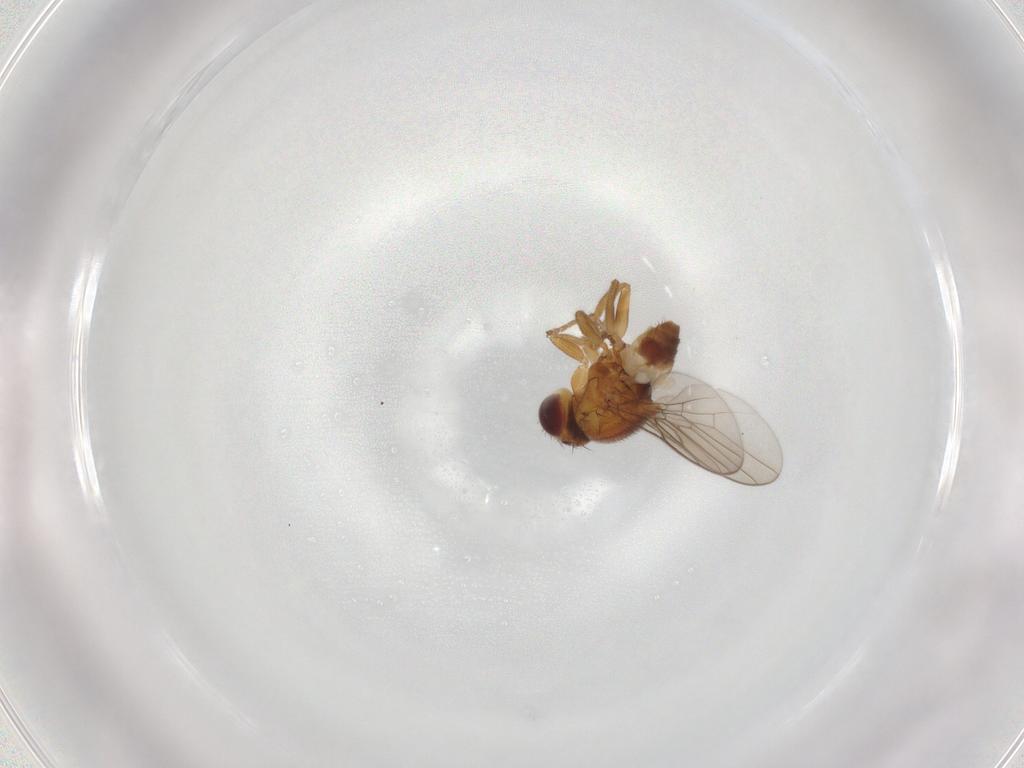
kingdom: Animalia
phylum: Arthropoda
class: Insecta
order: Diptera
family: Chloropidae
